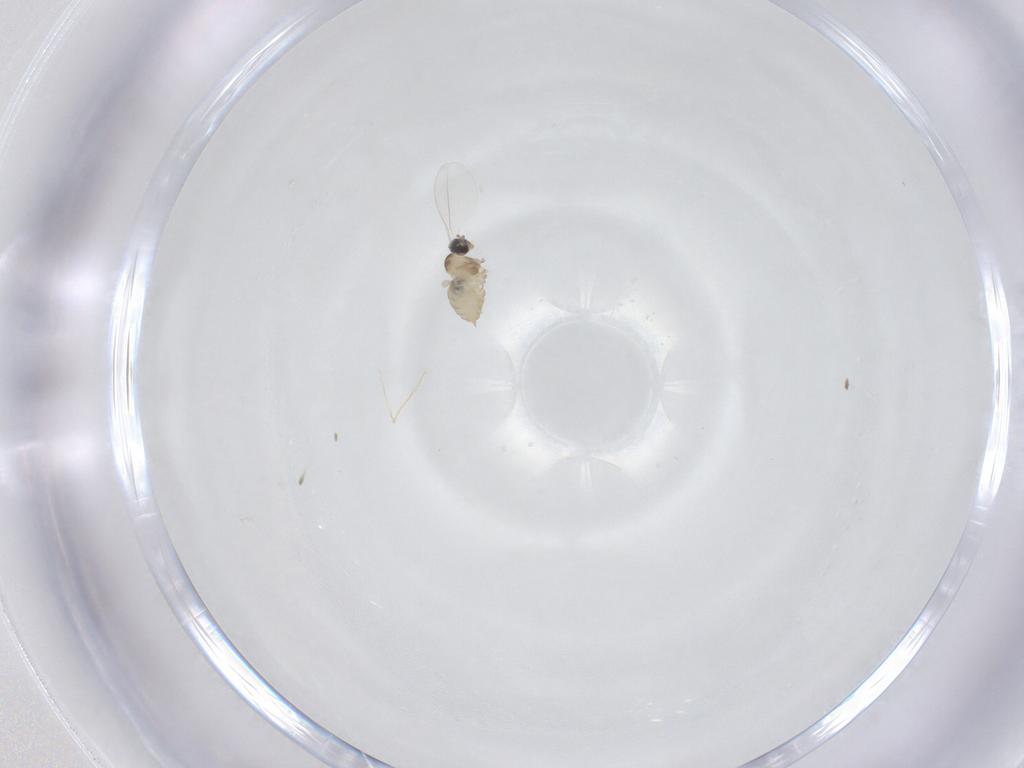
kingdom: Animalia
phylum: Arthropoda
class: Insecta
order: Diptera
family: Cecidomyiidae
